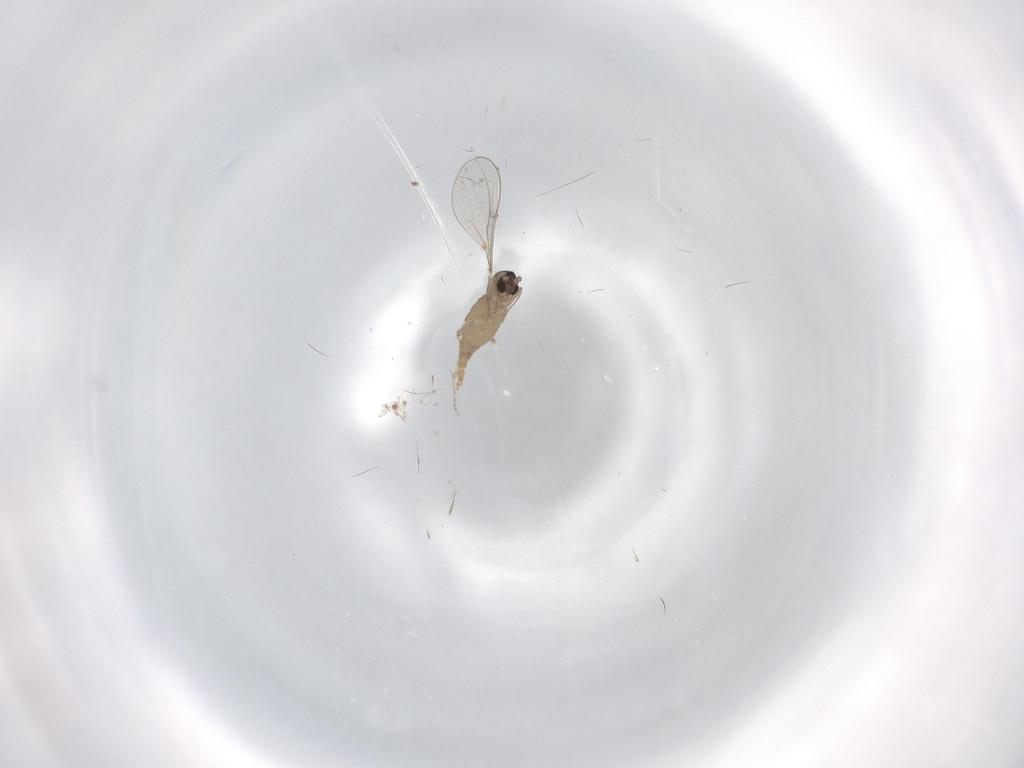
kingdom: Animalia
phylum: Arthropoda
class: Insecta
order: Diptera
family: Cecidomyiidae
